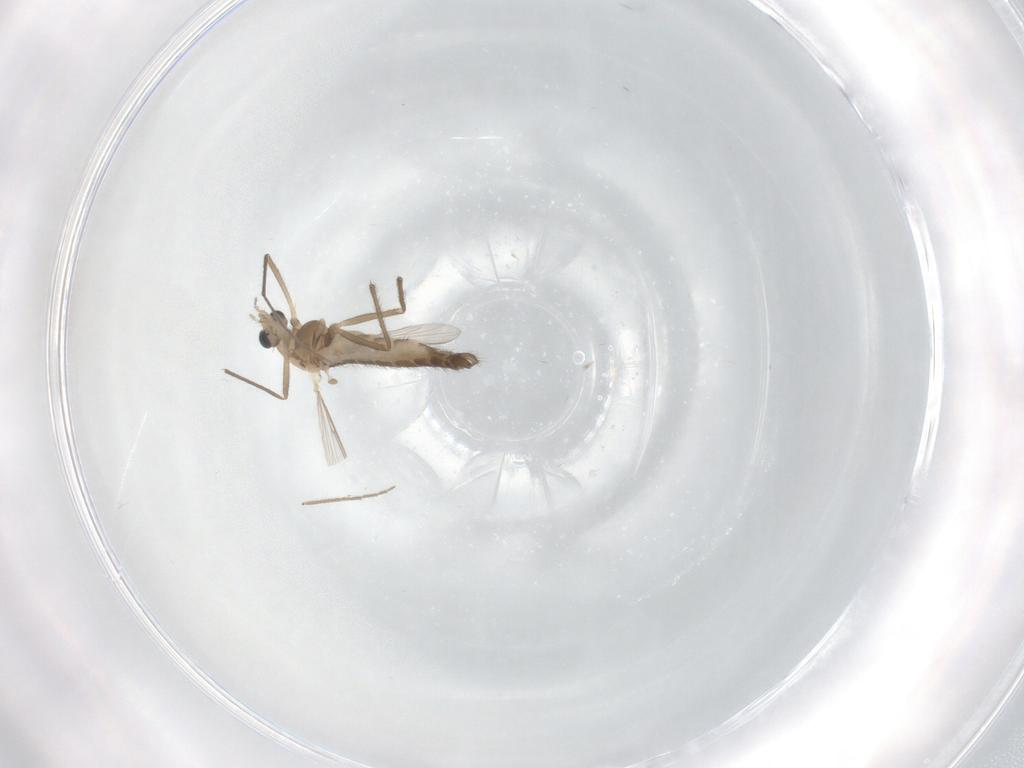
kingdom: Animalia
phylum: Arthropoda
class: Insecta
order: Diptera
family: Chironomidae
